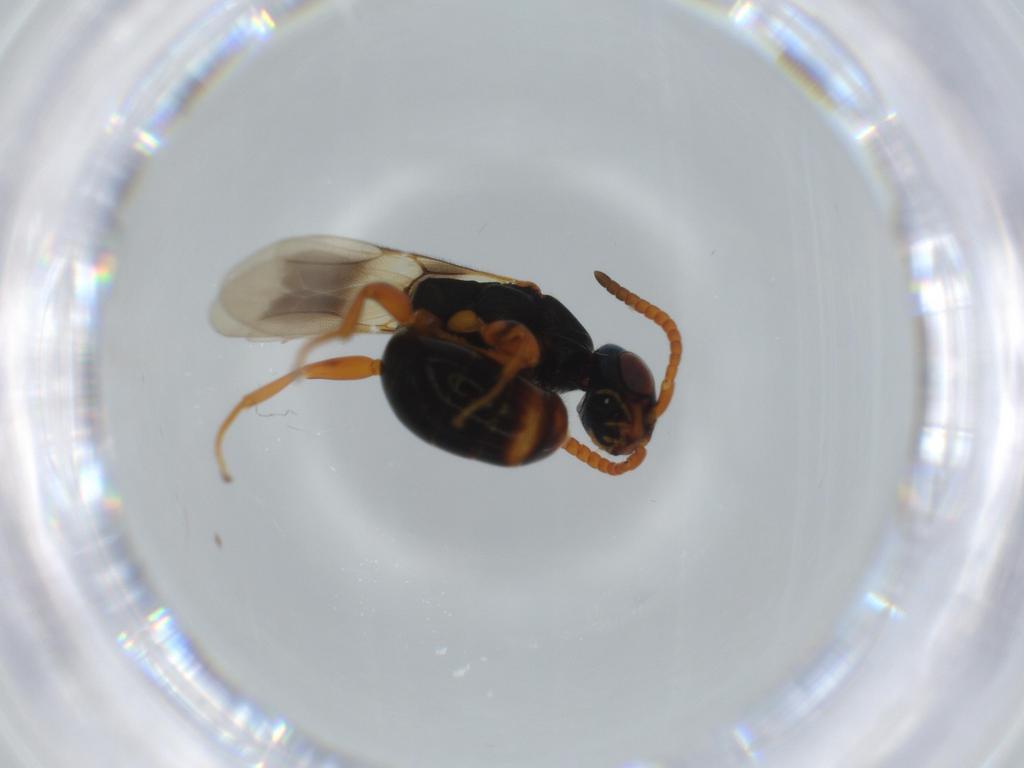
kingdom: Animalia
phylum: Arthropoda
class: Insecta
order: Hymenoptera
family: Bethylidae
